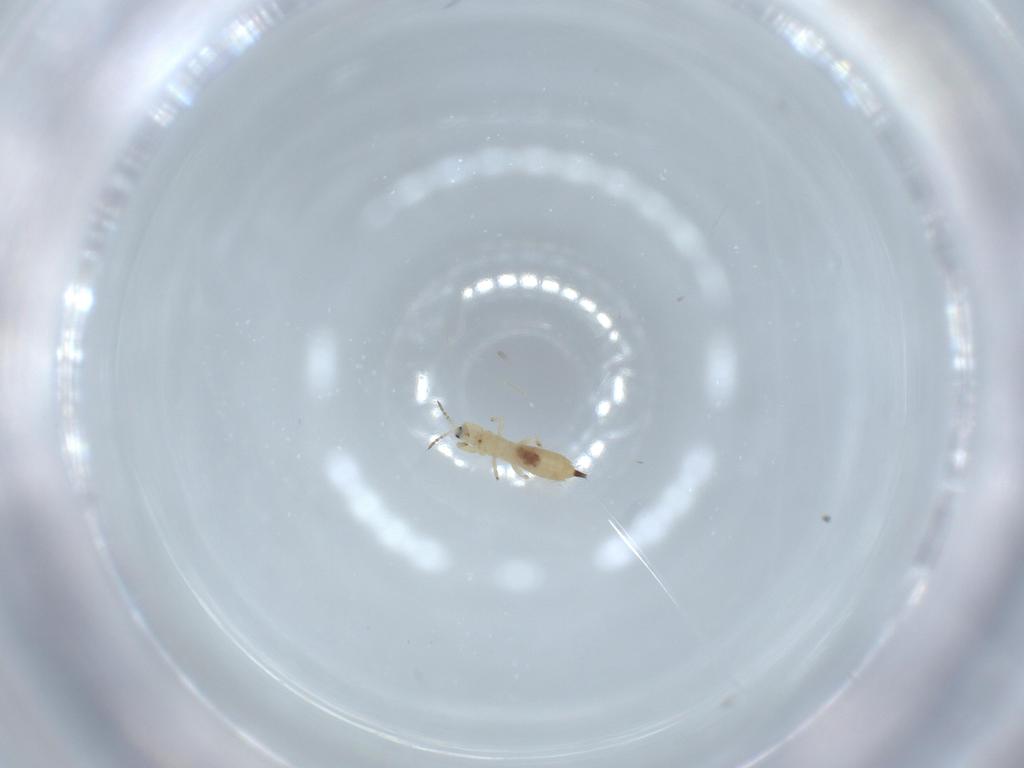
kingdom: Animalia
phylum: Arthropoda
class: Insecta
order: Thysanoptera
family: Phlaeothripidae
